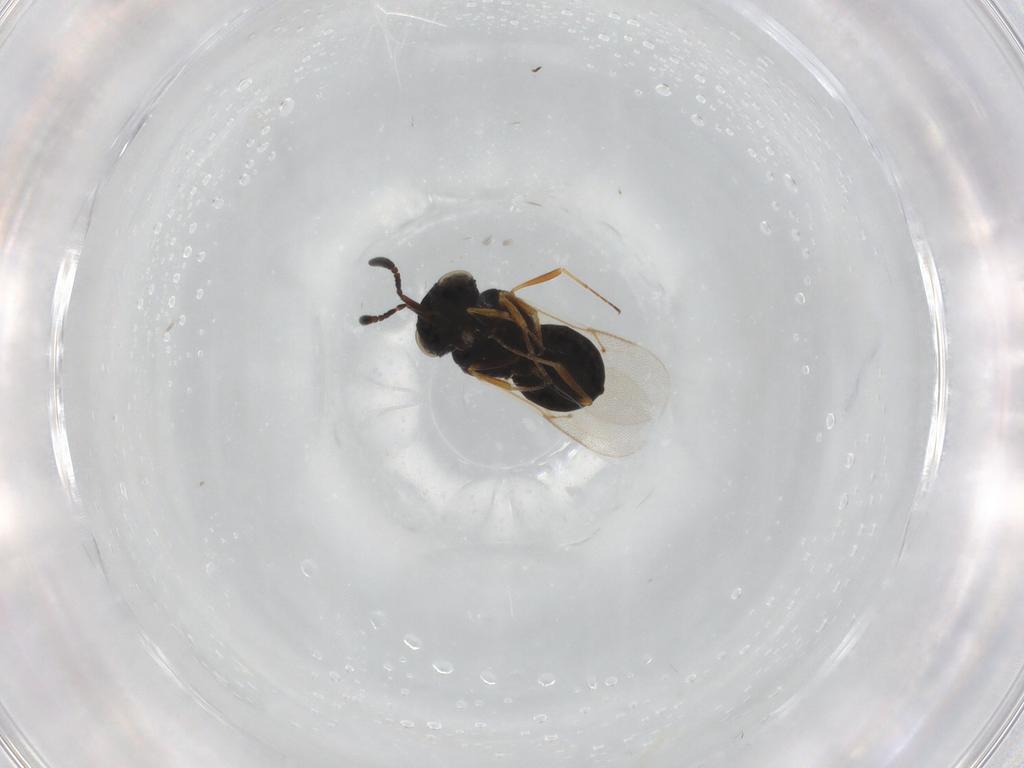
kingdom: Animalia
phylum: Arthropoda
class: Insecta
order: Hymenoptera
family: Scelionidae
